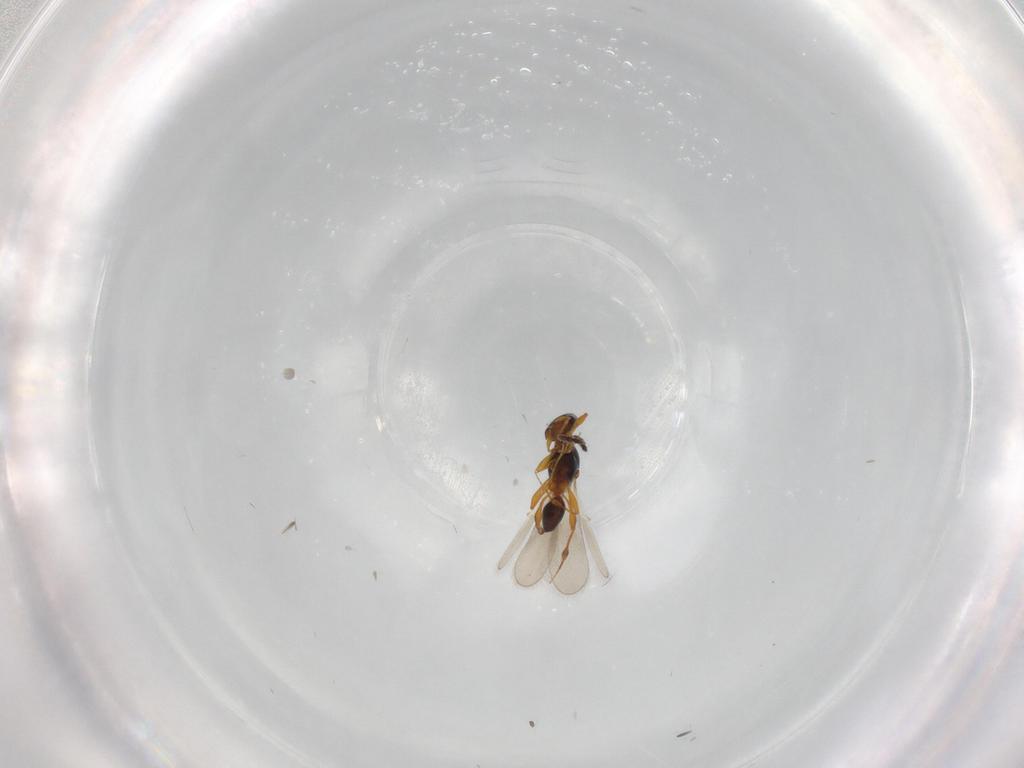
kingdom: Animalia
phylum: Arthropoda
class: Insecta
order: Hymenoptera
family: Platygastridae
